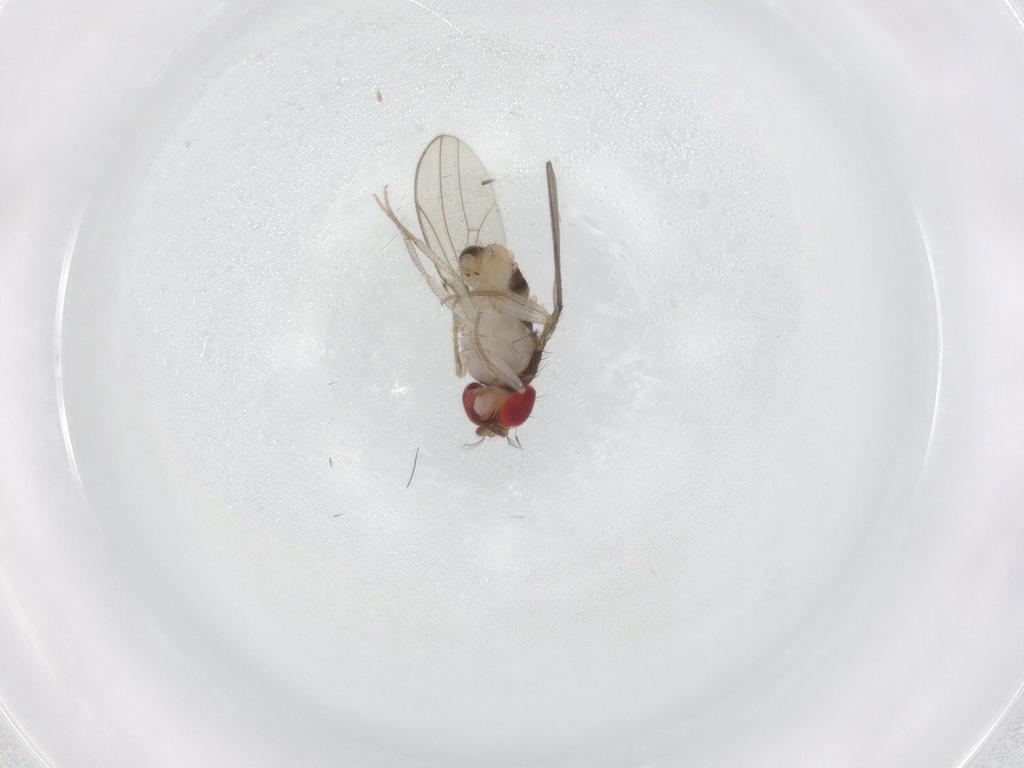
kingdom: Animalia
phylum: Arthropoda
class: Insecta
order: Diptera
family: Drosophilidae
